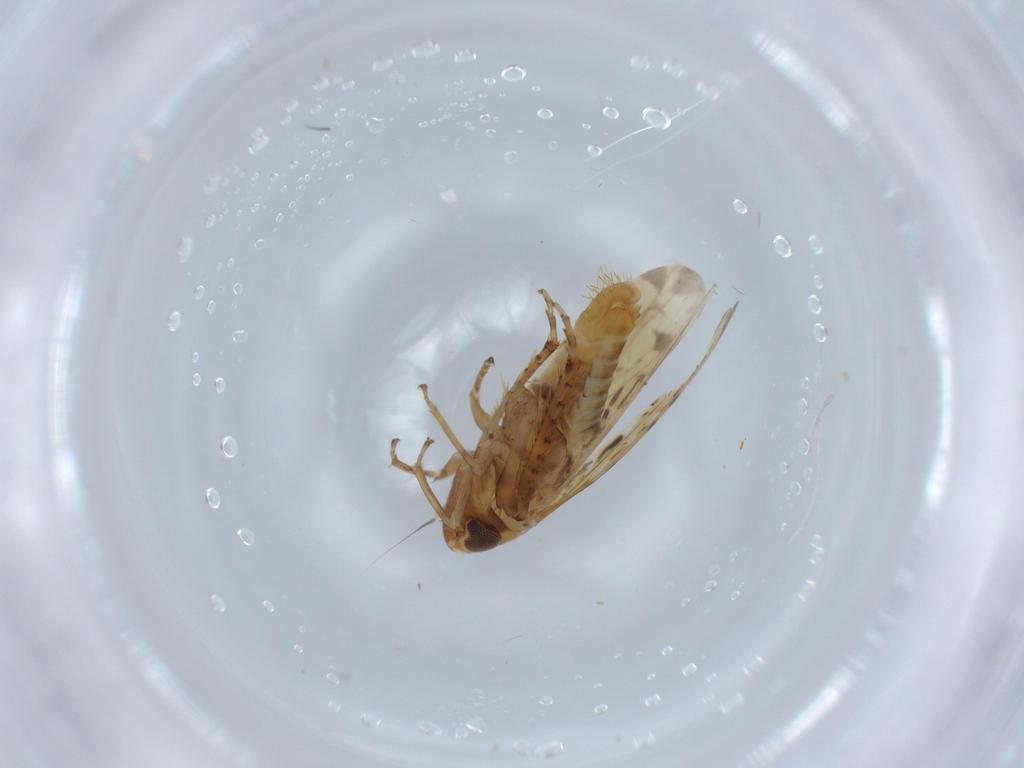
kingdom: Animalia
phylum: Arthropoda
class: Insecta
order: Hemiptera
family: Cicadellidae
